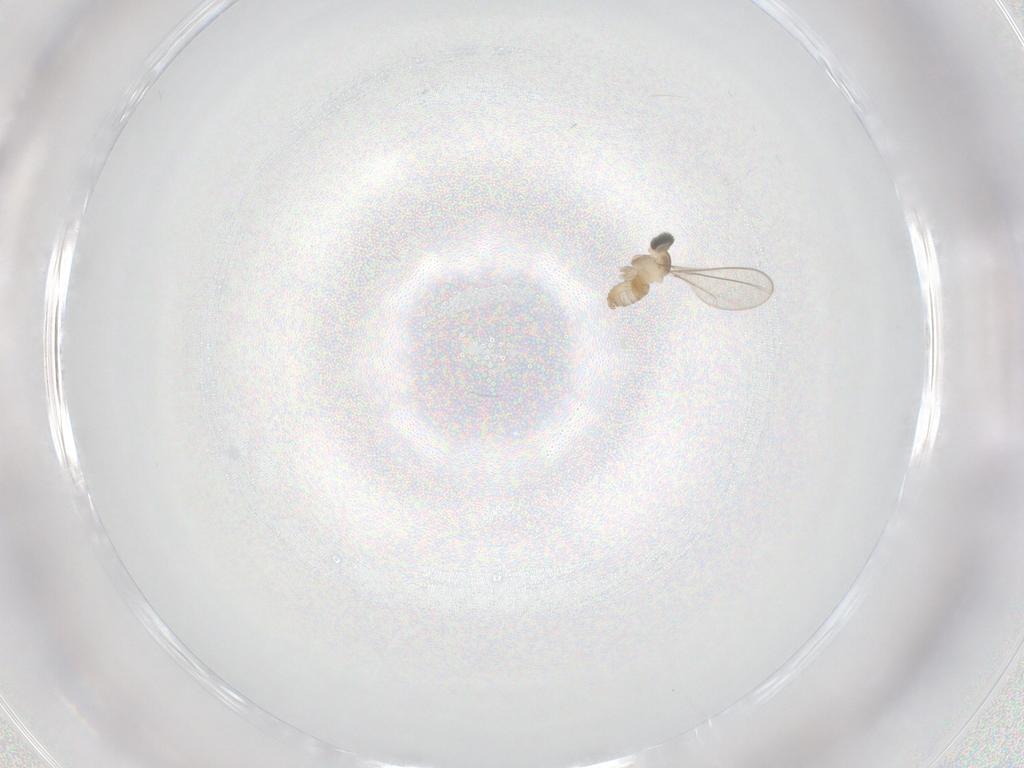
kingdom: Animalia
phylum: Arthropoda
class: Insecta
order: Diptera
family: Cecidomyiidae
